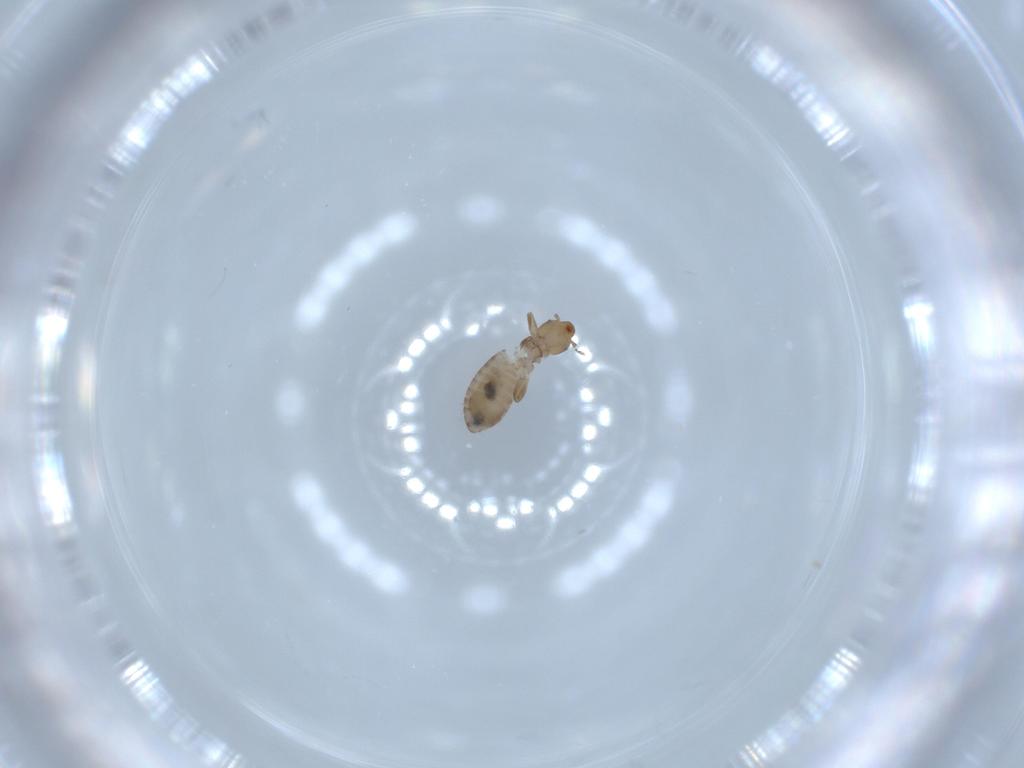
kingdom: Animalia
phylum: Arthropoda
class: Insecta
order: Psocodea
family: Liposcelididae
